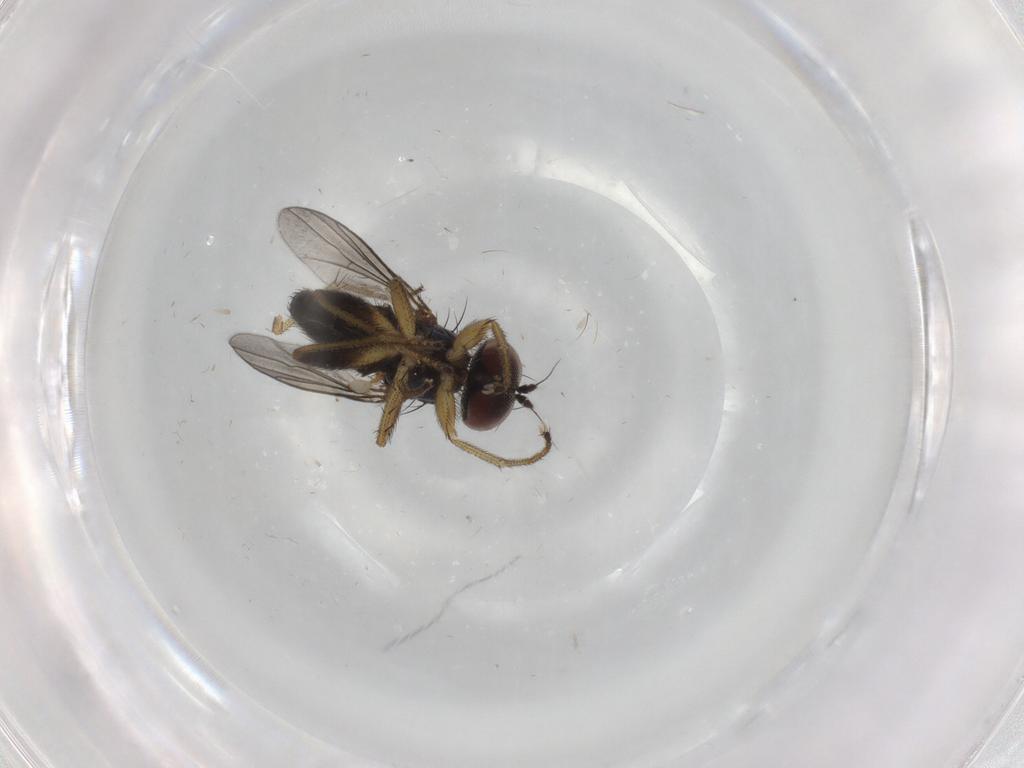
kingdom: Animalia
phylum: Arthropoda
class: Insecta
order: Diptera
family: Dolichopodidae
